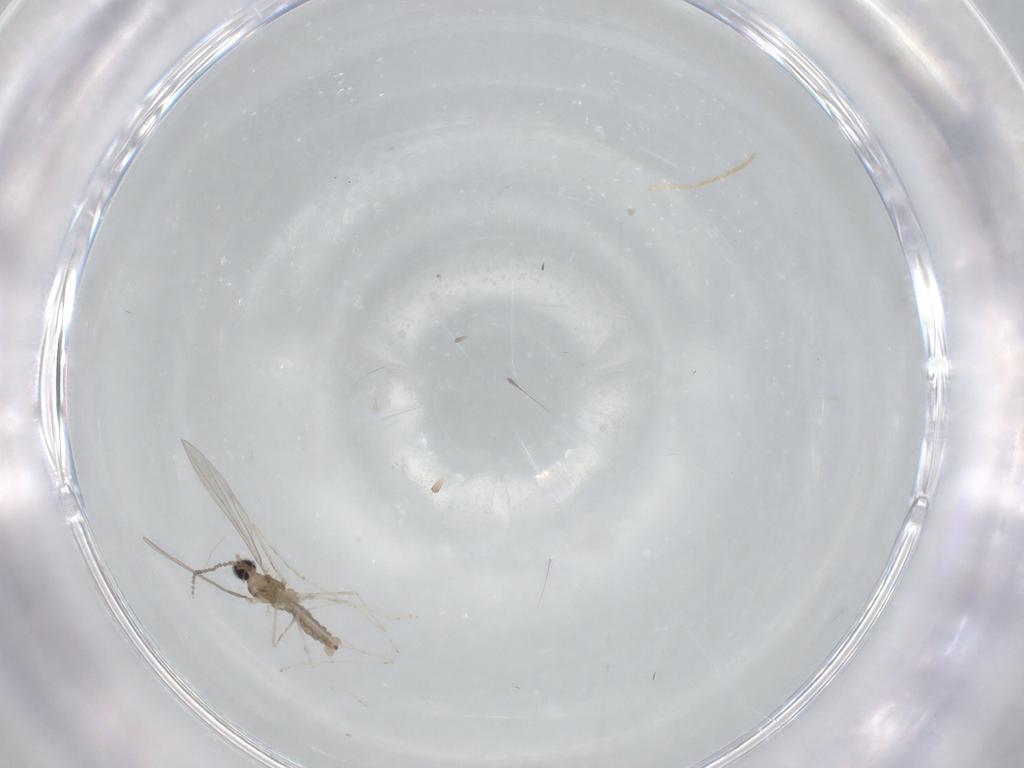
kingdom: Animalia
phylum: Arthropoda
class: Insecta
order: Diptera
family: Cecidomyiidae
